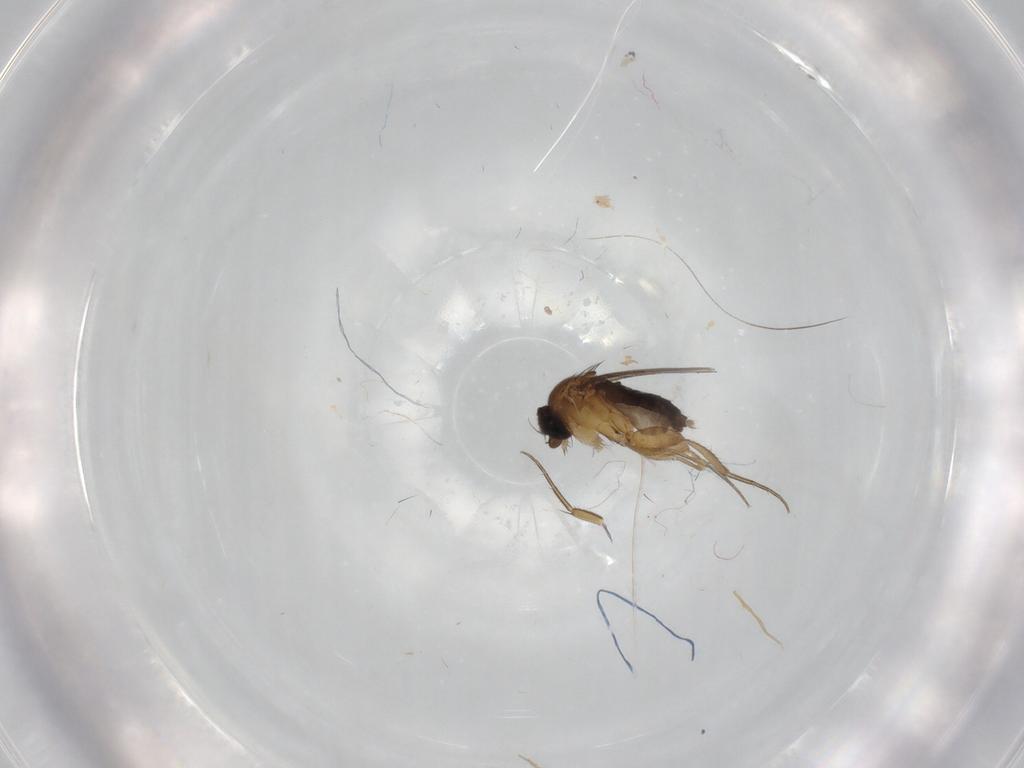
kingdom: Animalia
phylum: Arthropoda
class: Insecta
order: Diptera
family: Phoridae
